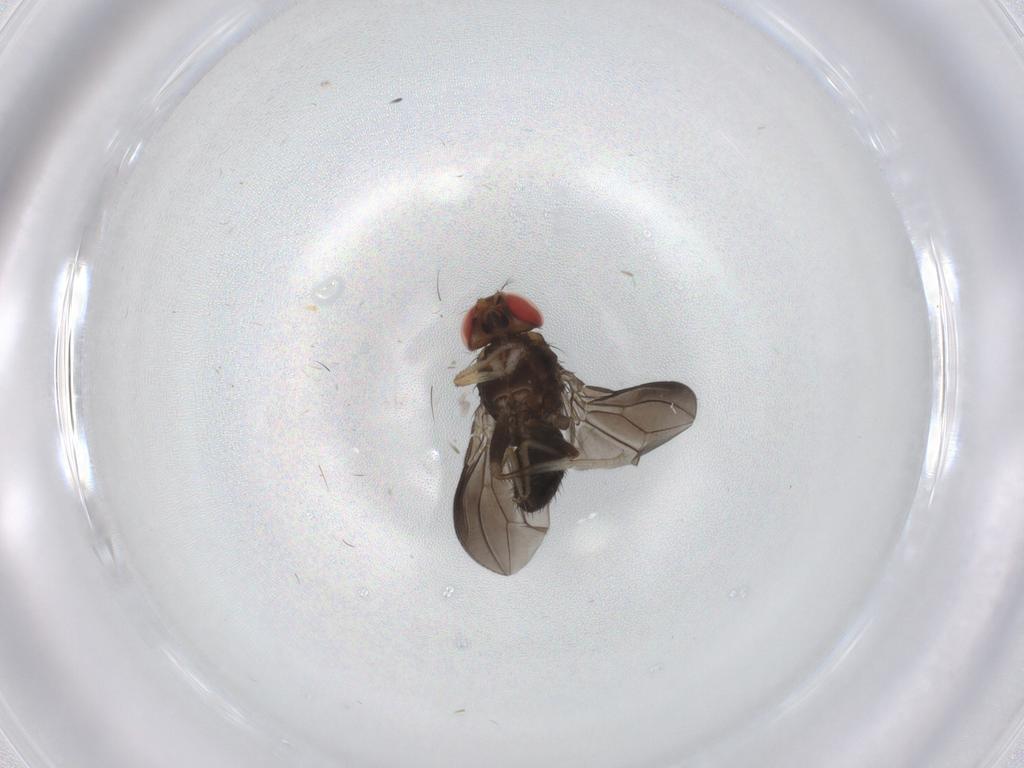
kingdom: Animalia
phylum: Arthropoda
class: Insecta
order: Diptera
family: Drosophilidae
